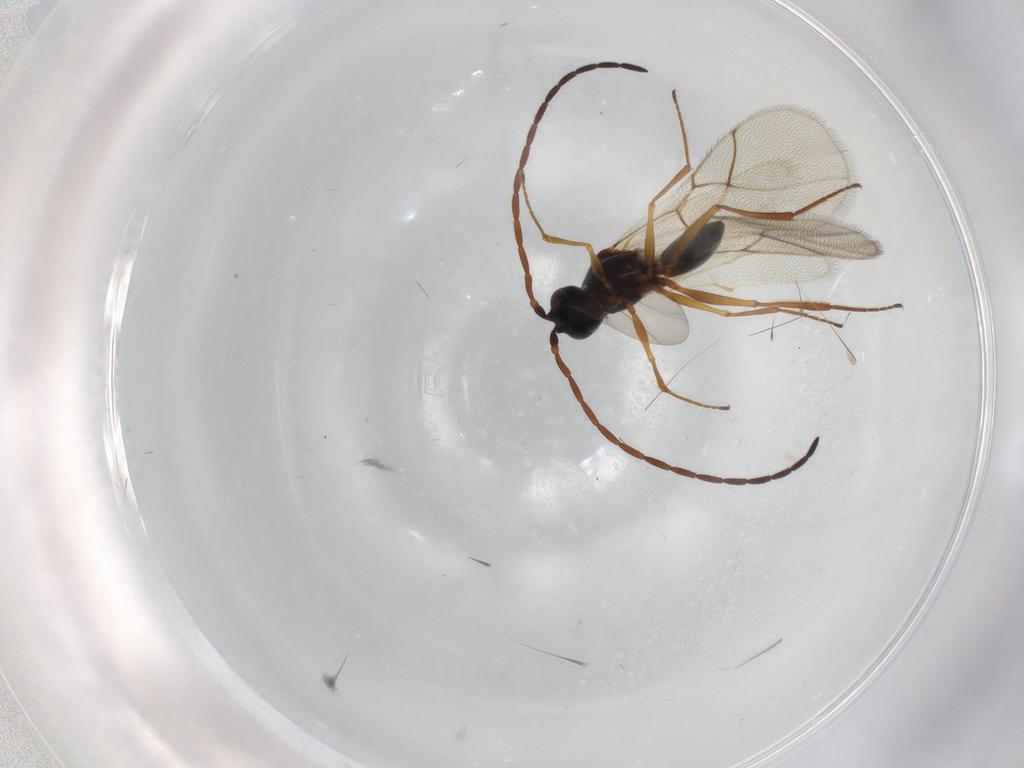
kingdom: Animalia
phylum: Arthropoda
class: Insecta
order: Hymenoptera
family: Figitidae
